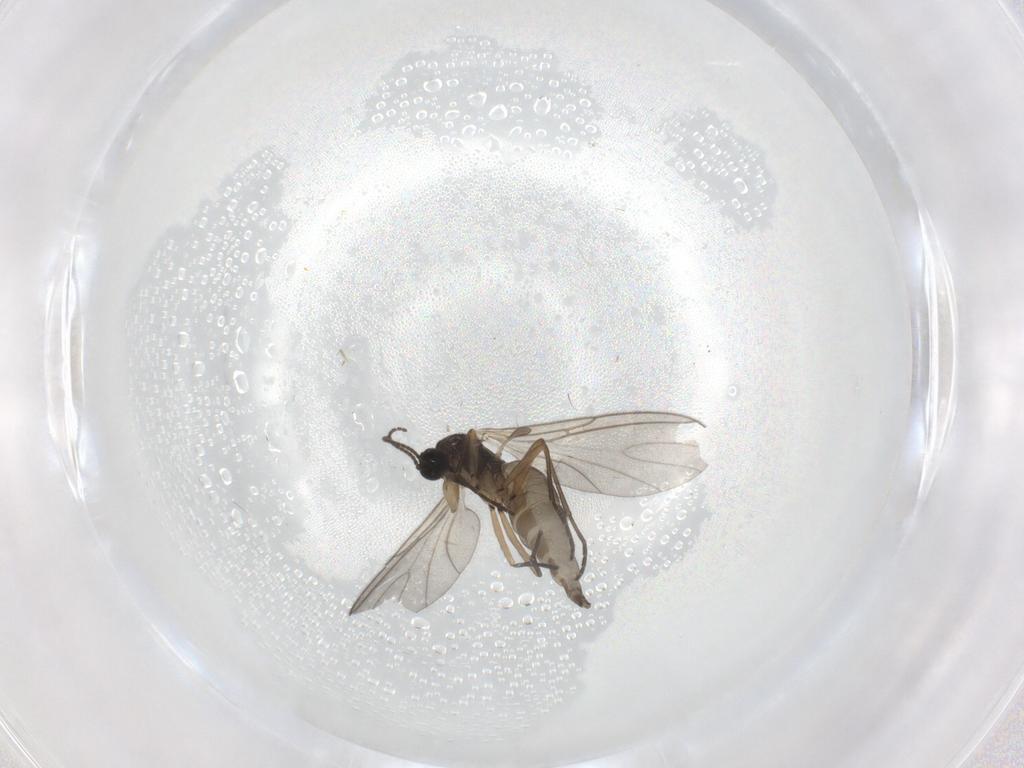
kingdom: Animalia
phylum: Arthropoda
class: Insecta
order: Diptera
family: Sciaridae
